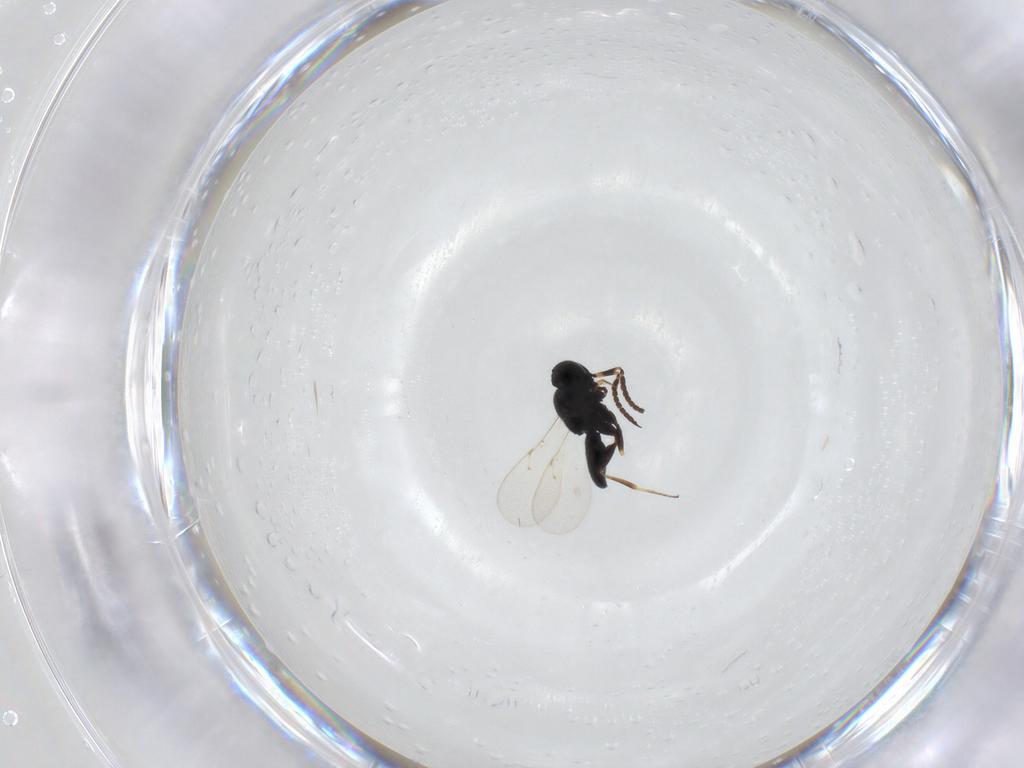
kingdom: Animalia
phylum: Arthropoda
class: Insecta
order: Hymenoptera
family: Scelionidae
